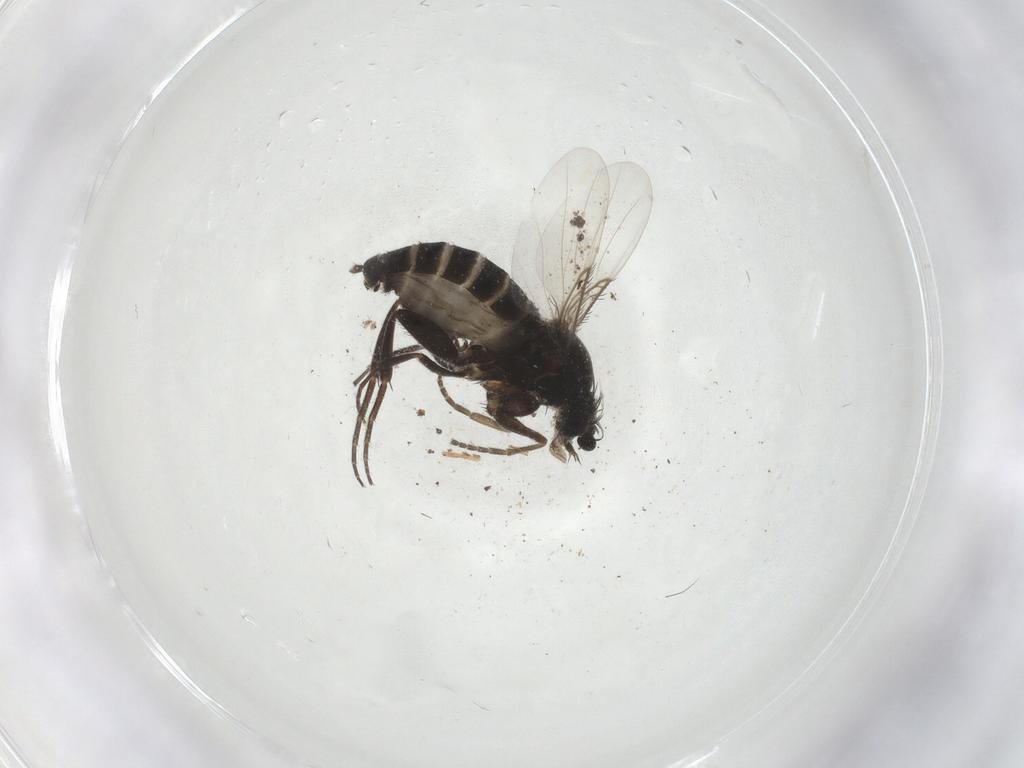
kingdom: Animalia
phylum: Arthropoda
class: Insecta
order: Diptera
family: Phoridae
